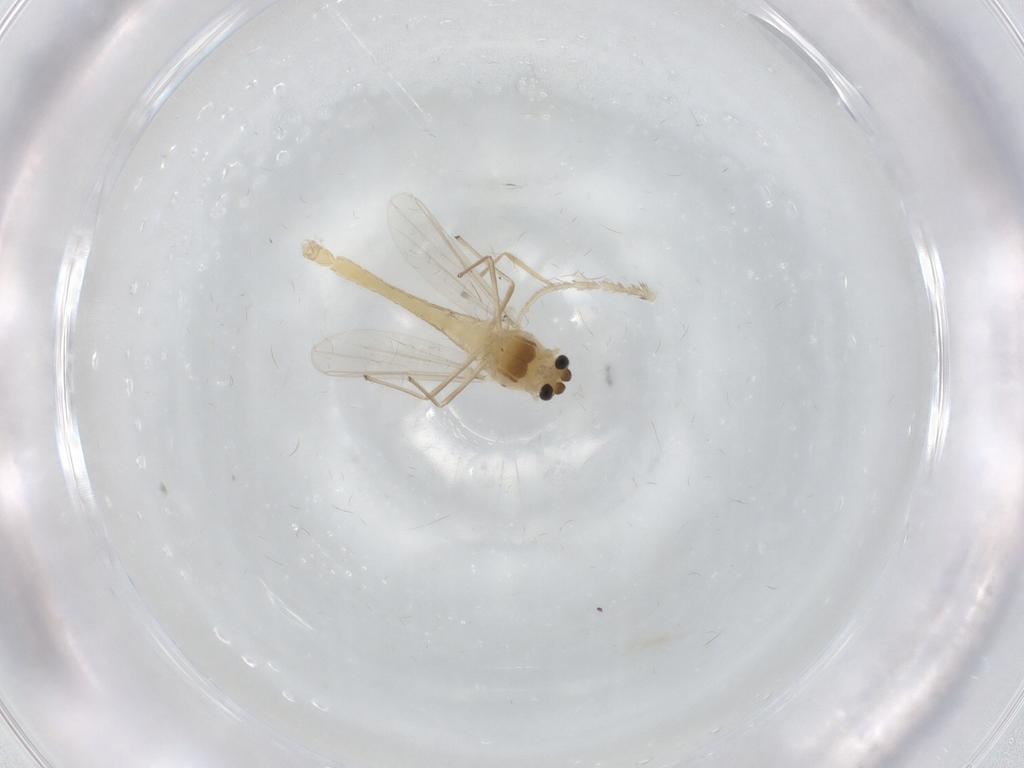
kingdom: Animalia
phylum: Arthropoda
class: Insecta
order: Diptera
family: Chironomidae
